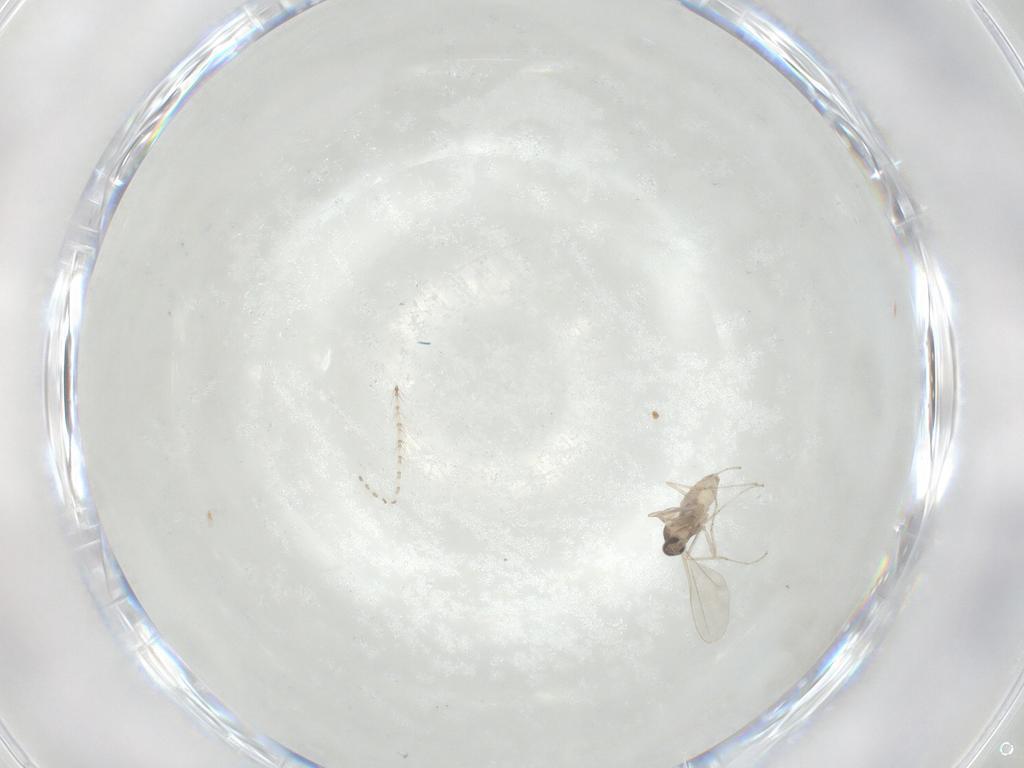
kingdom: Animalia
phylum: Arthropoda
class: Insecta
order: Diptera
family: Cecidomyiidae
